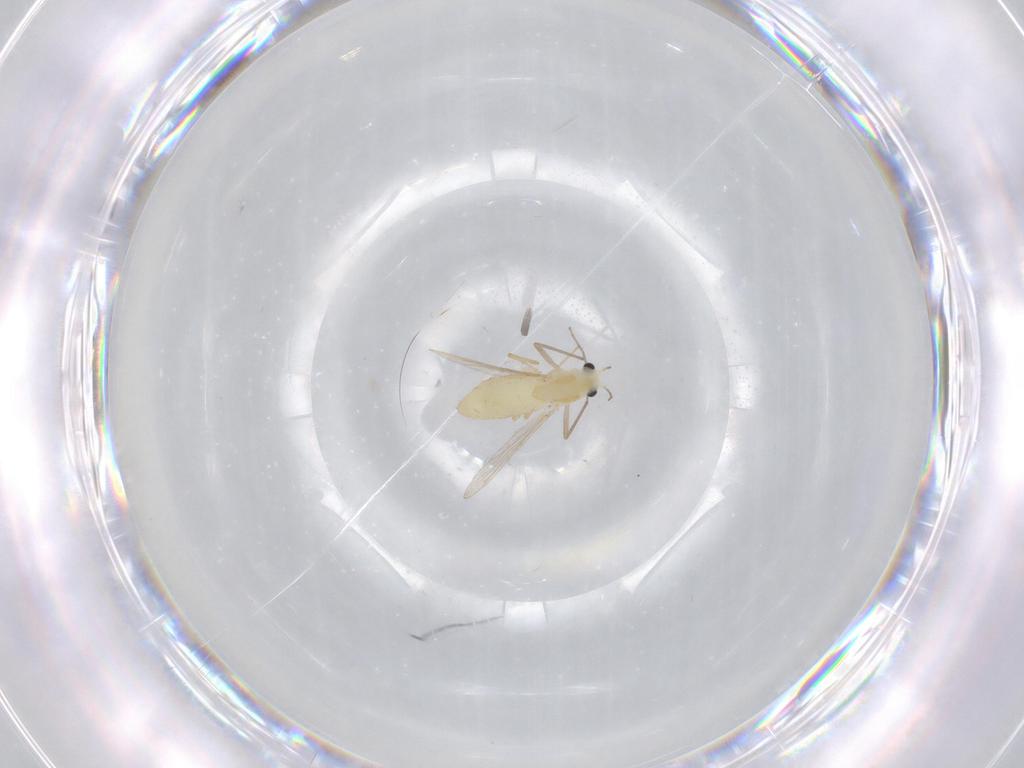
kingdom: Animalia
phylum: Arthropoda
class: Insecta
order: Diptera
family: Chironomidae
